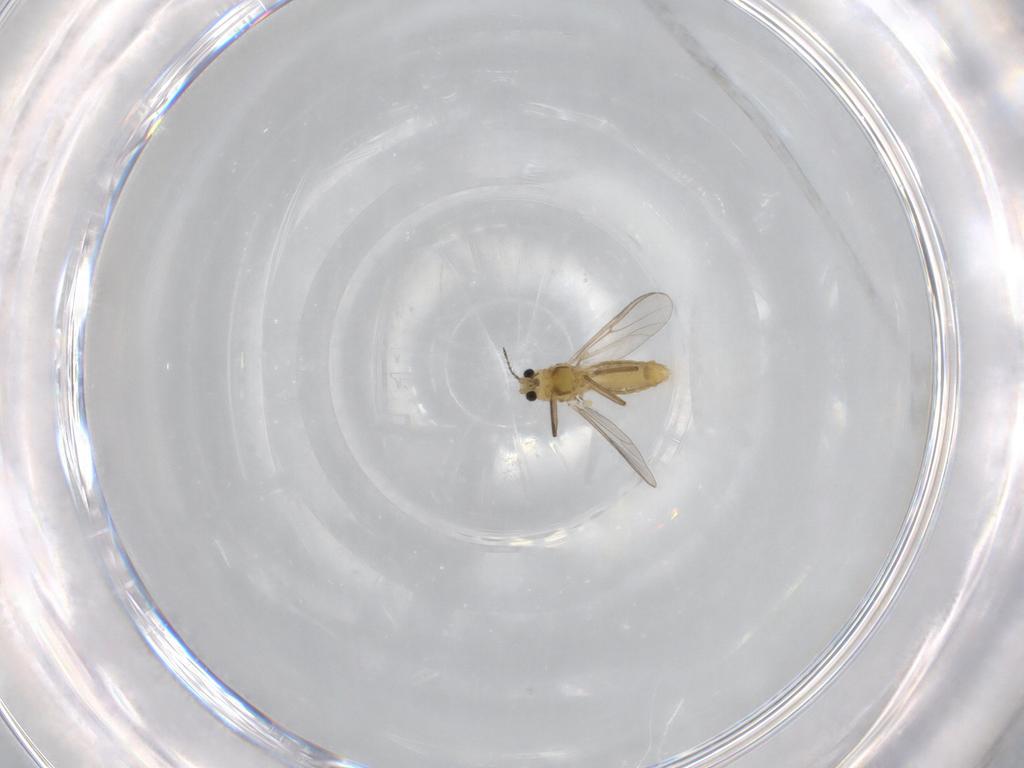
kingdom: Animalia
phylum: Arthropoda
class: Insecta
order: Diptera
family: Chironomidae
